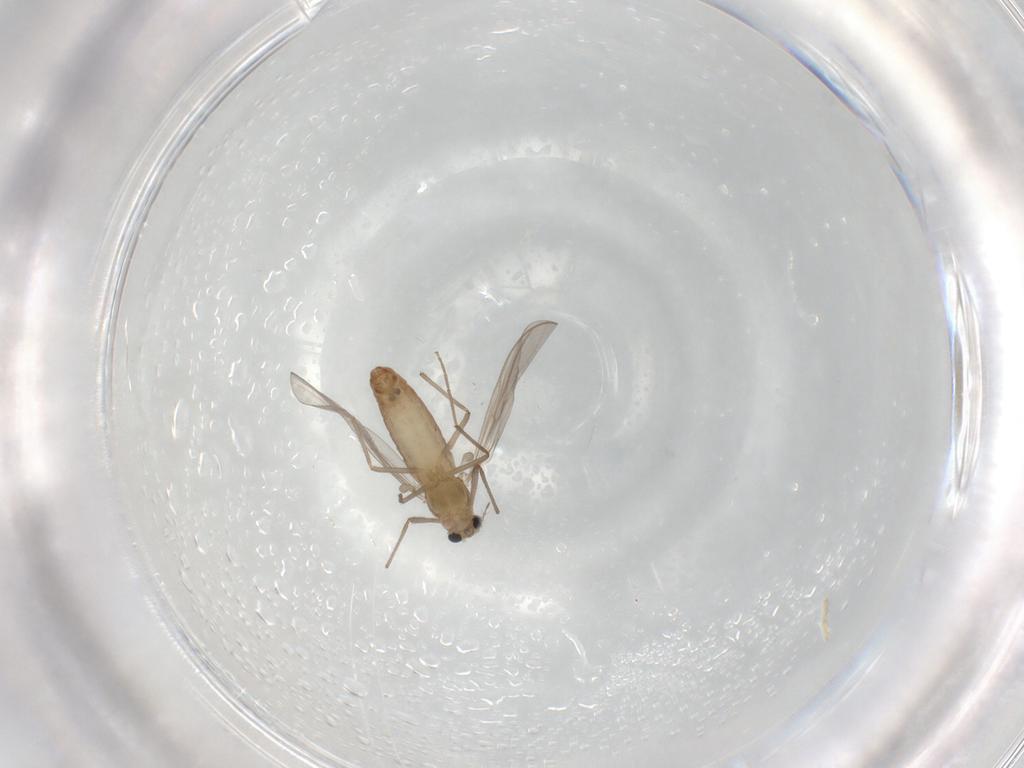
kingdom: Animalia
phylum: Arthropoda
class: Insecta
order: Diptera
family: Chironomidae
